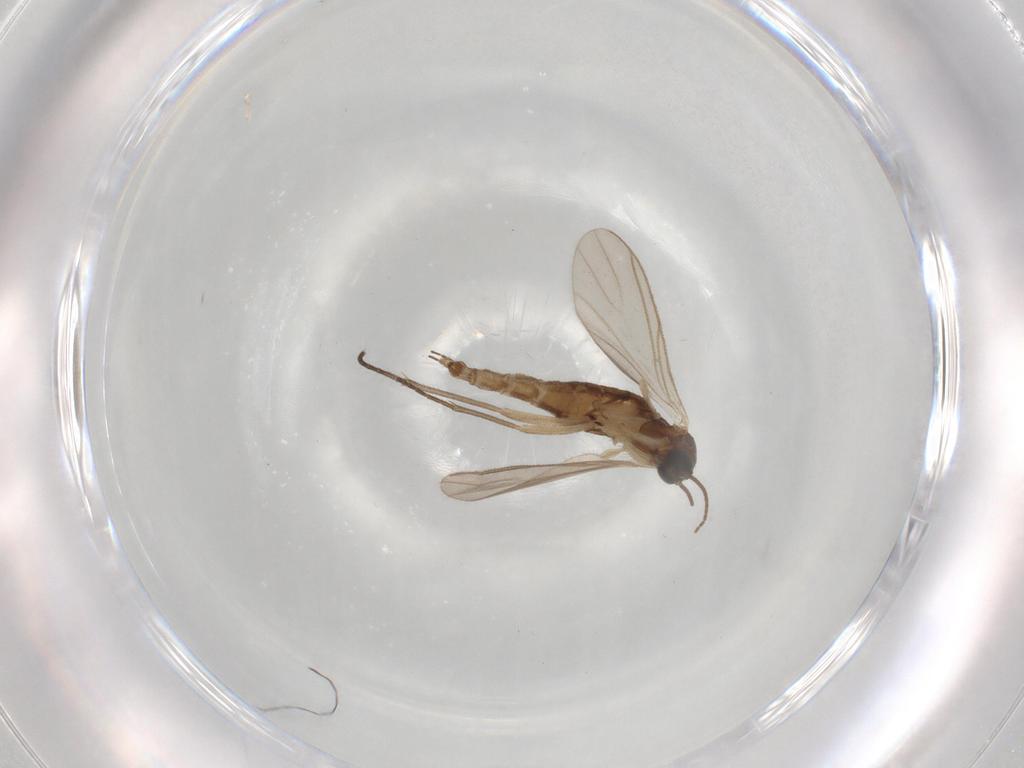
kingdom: Animalia
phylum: Arthropoda
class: Insecta
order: Diptera
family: Sciaridae
